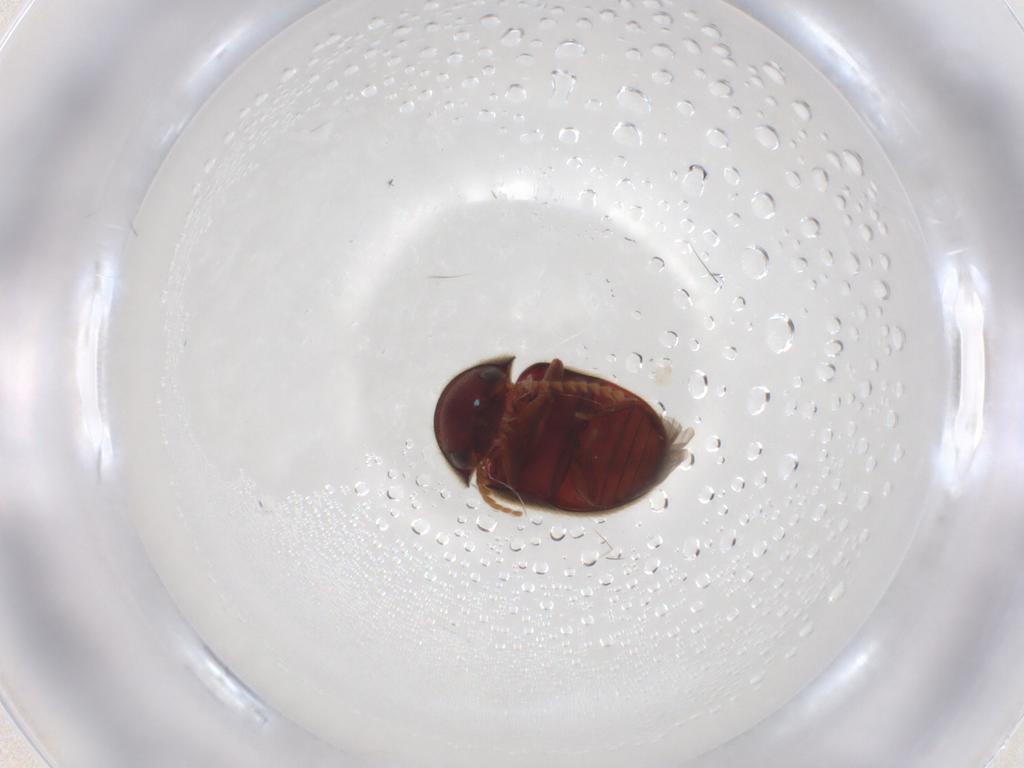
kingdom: Animalia
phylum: Arthropoda
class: Insecta
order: Coleoptera
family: Ptinidae
